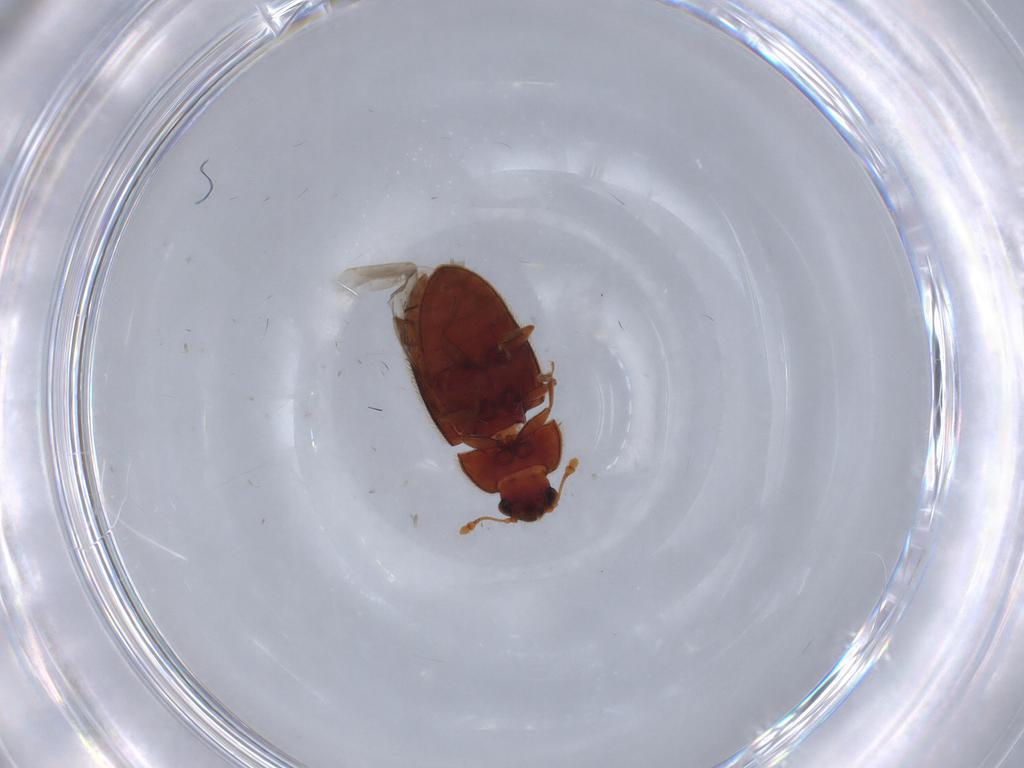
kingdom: Animalia
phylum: Arthropoda
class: Insecta
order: Coleoptera
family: Biphyllidae
